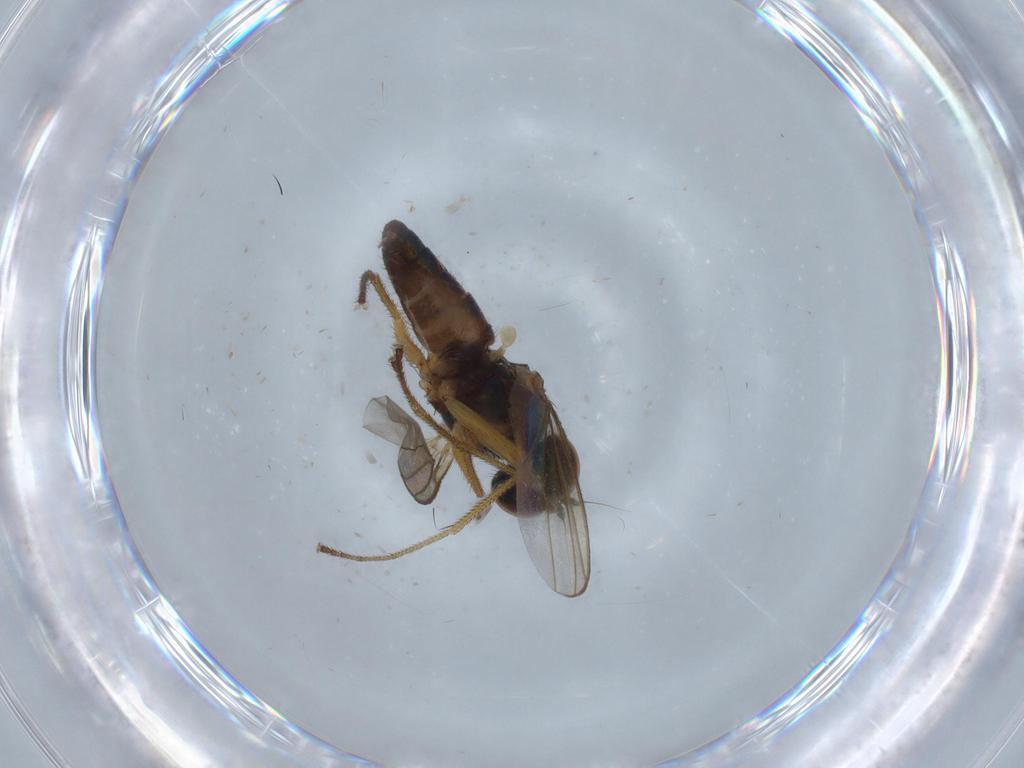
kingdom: Animalia
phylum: Arthropoda
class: Insecta
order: Diptera
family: Dolichopodidae
